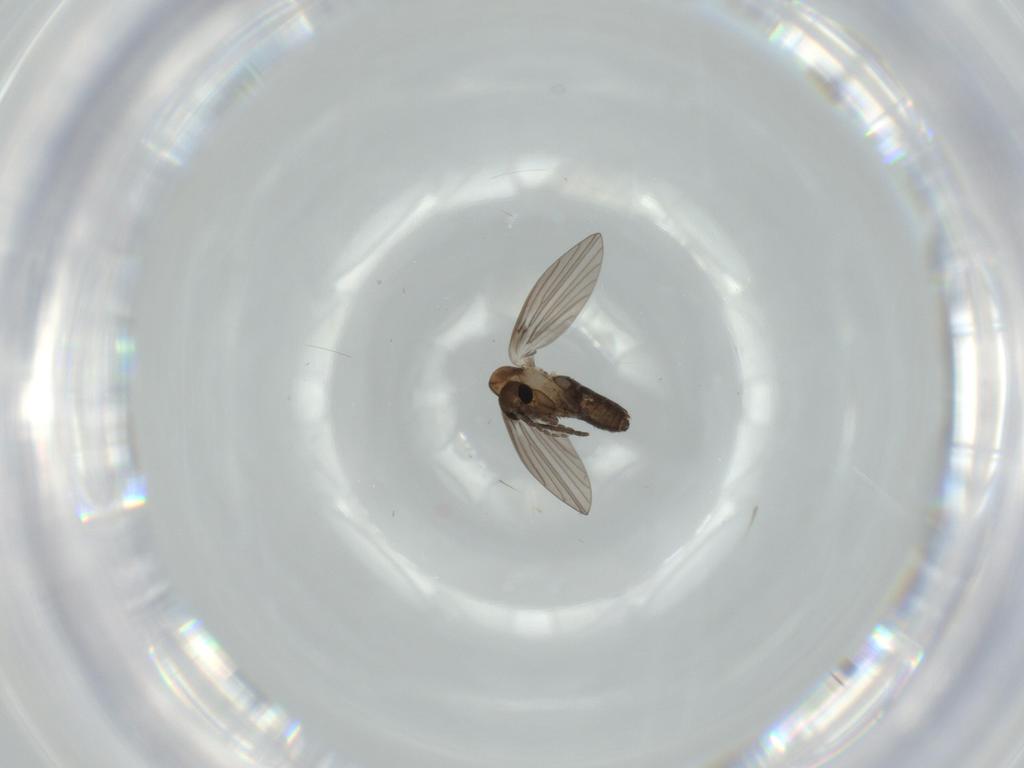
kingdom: Animalia
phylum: Arthropoda
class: Insecta
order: Diptera
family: Psychodidae
